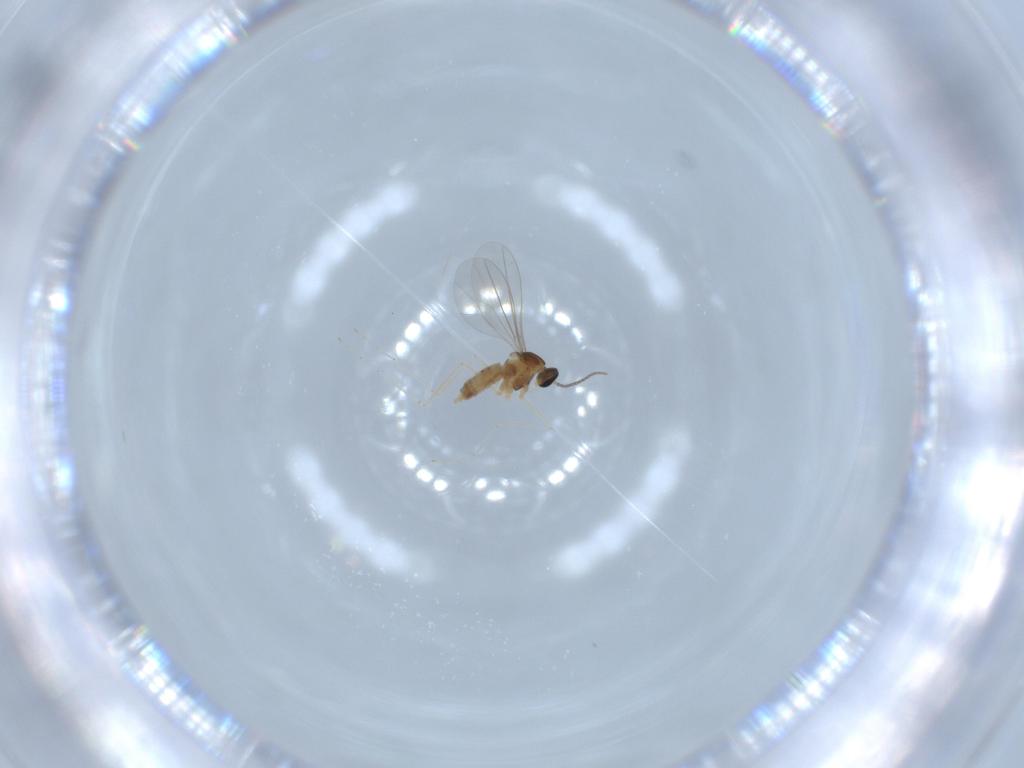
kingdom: Animalia
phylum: Arthropoda
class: Insecta
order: Diptera
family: Cecidomyiidae
